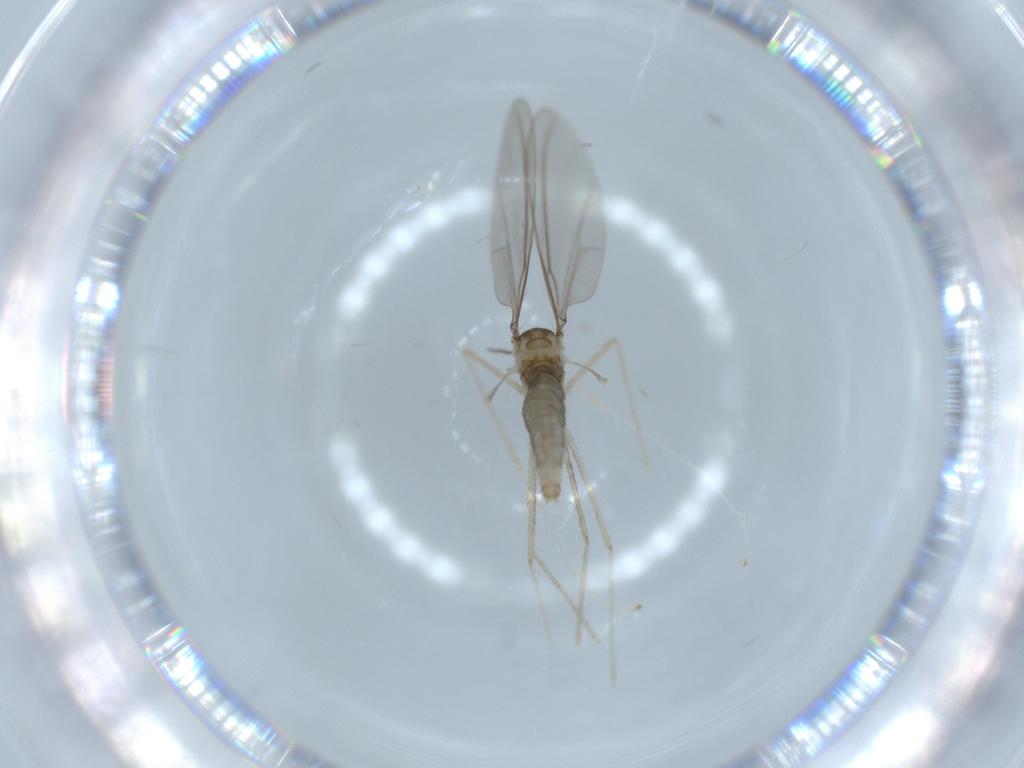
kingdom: Animalia
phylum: Arthropoda
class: Insecta
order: Diptera
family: Cecidomyiidae
